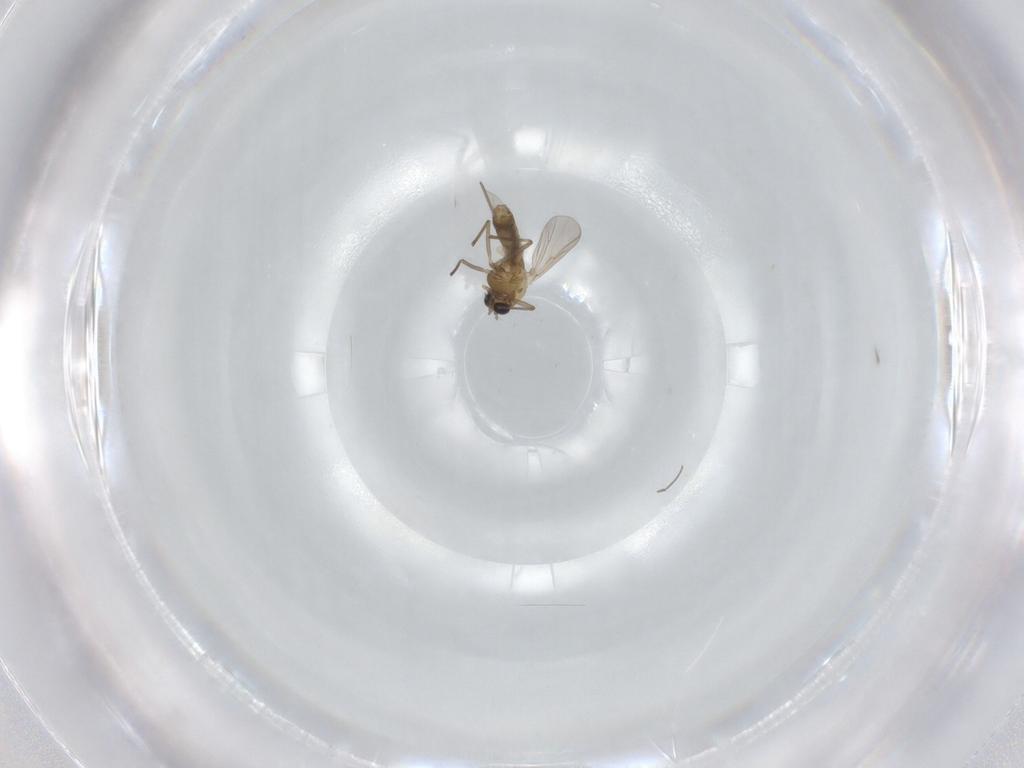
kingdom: Animalia
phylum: Arthropoda
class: Insecta
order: Diptera
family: Chironomidae
